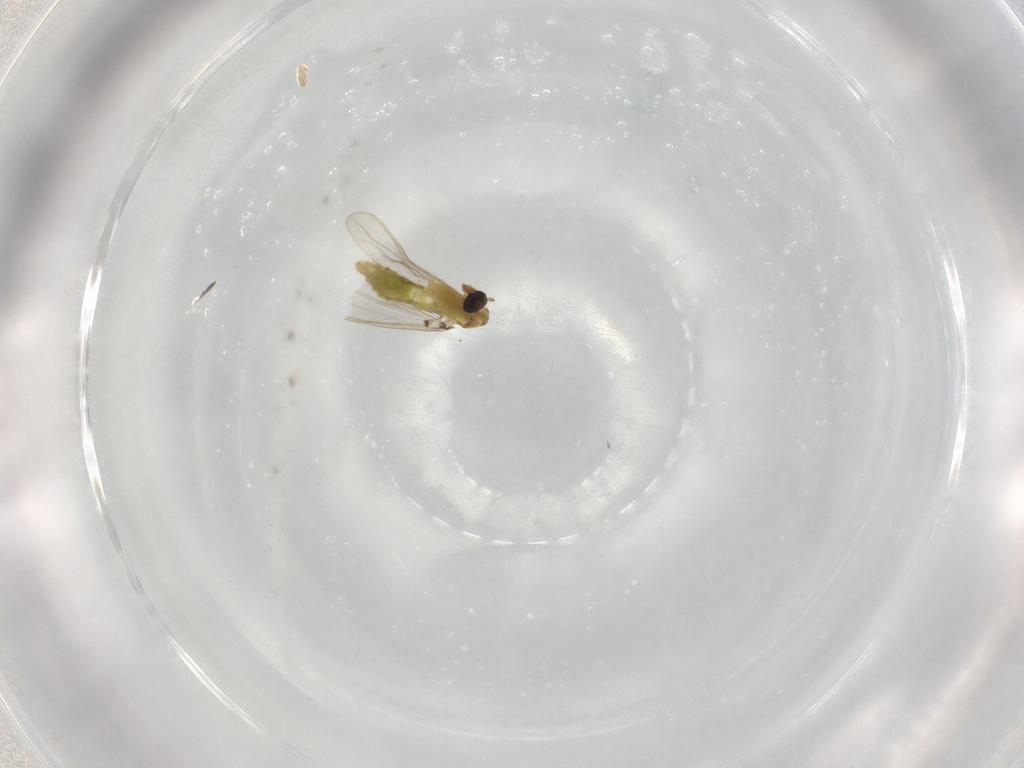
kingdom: Animalia
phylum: Arthropoda
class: Insecta
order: Diptera
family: Chironomidae
